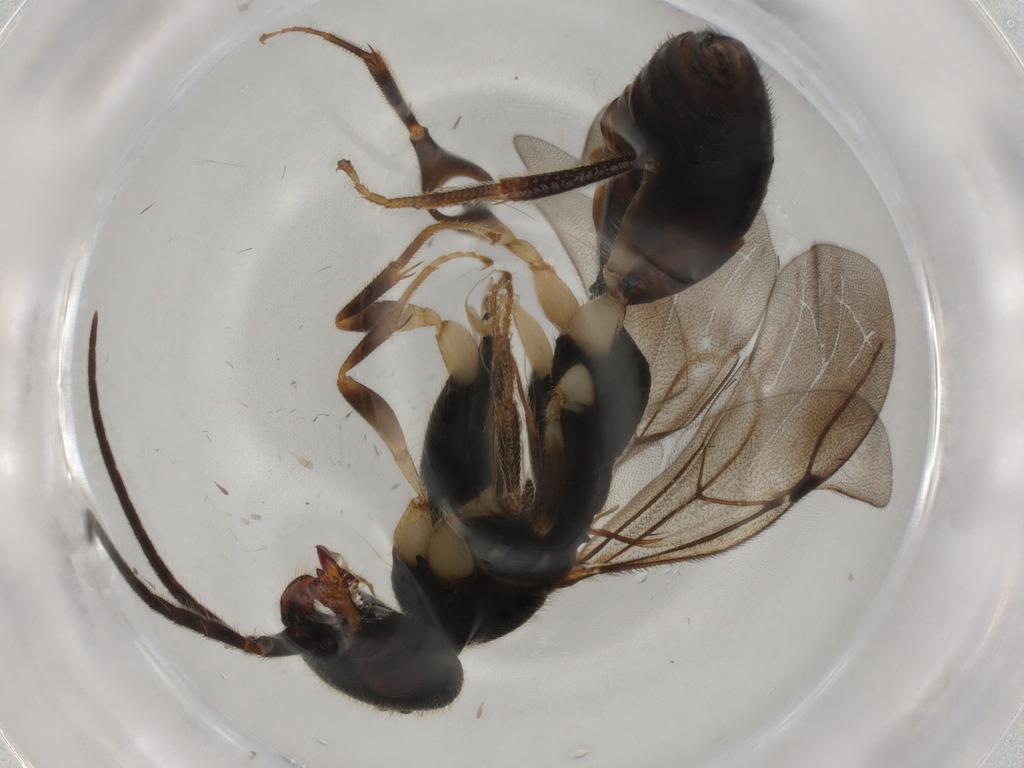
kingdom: Animalia
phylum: Arthropoda
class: Insecta
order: Hymenoptera
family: Bethylidae
